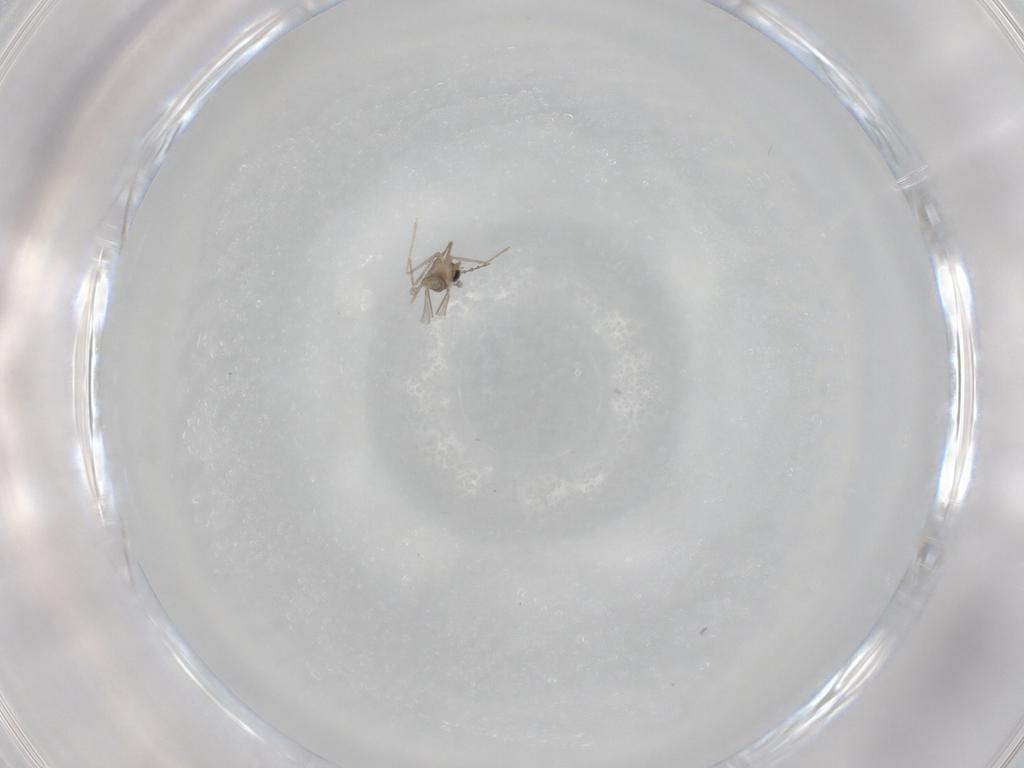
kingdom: Animalia
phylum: Arthropoda
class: Insecta
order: Diptera
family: Cecidomyiidae
